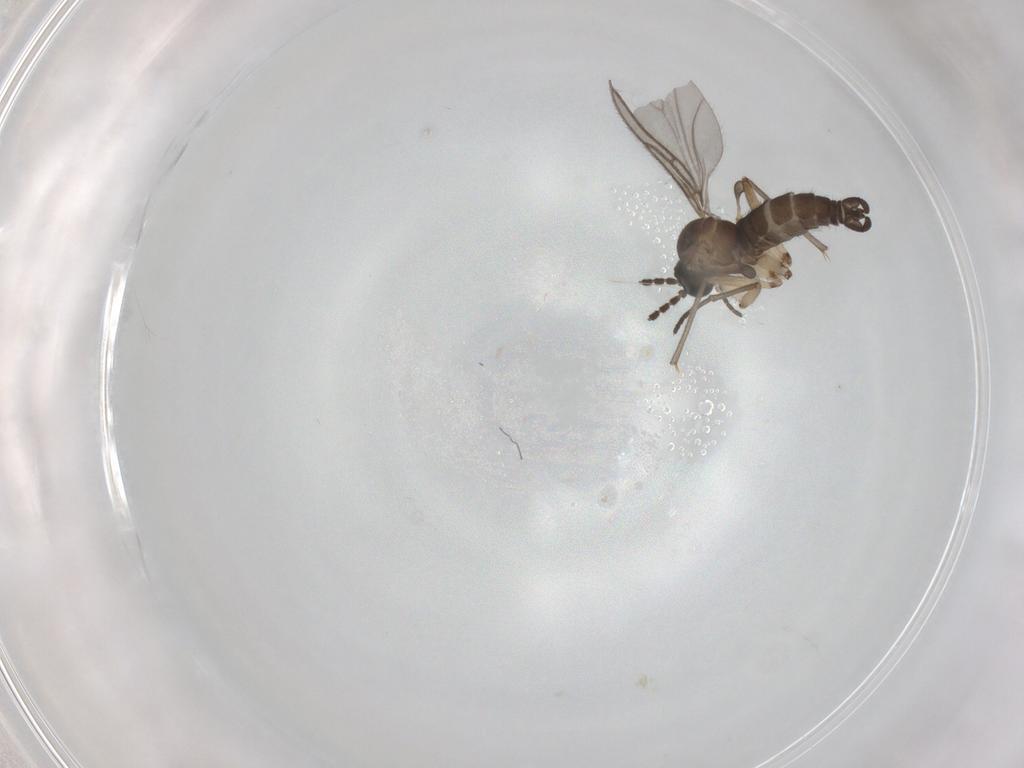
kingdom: Animalia
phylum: Arthropoda
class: Insecta
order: Diptera
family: Sciaridae
